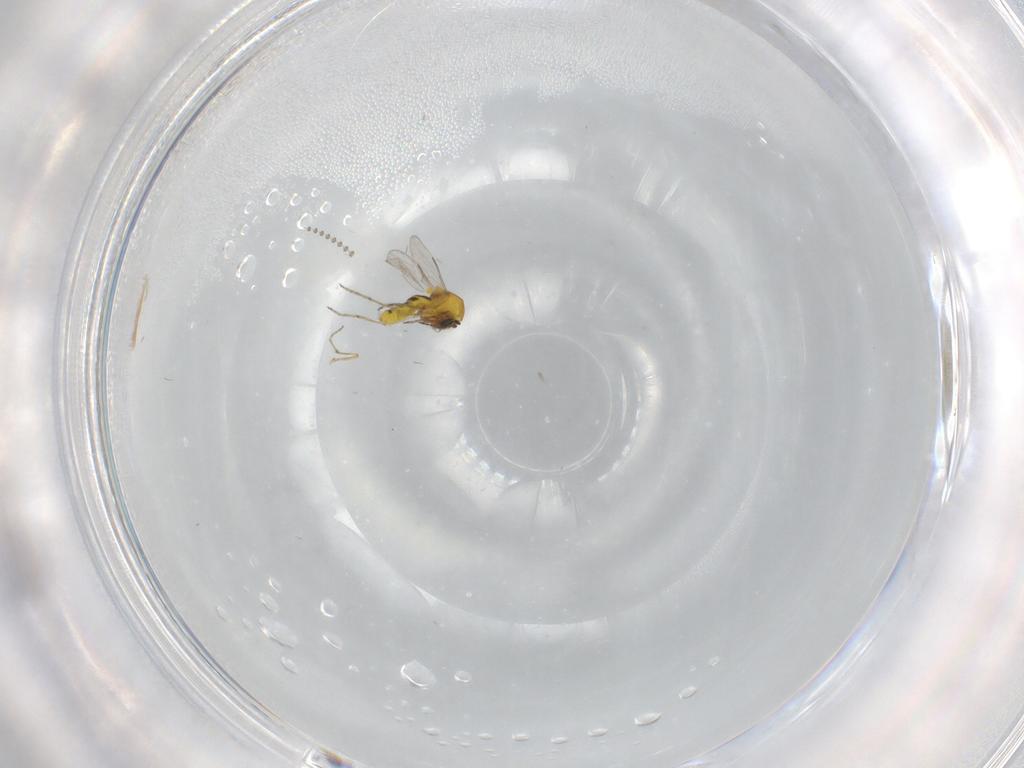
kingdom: Animalia
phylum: Arthropoda
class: Insecta
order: Diptera
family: Ceratopogonidae
